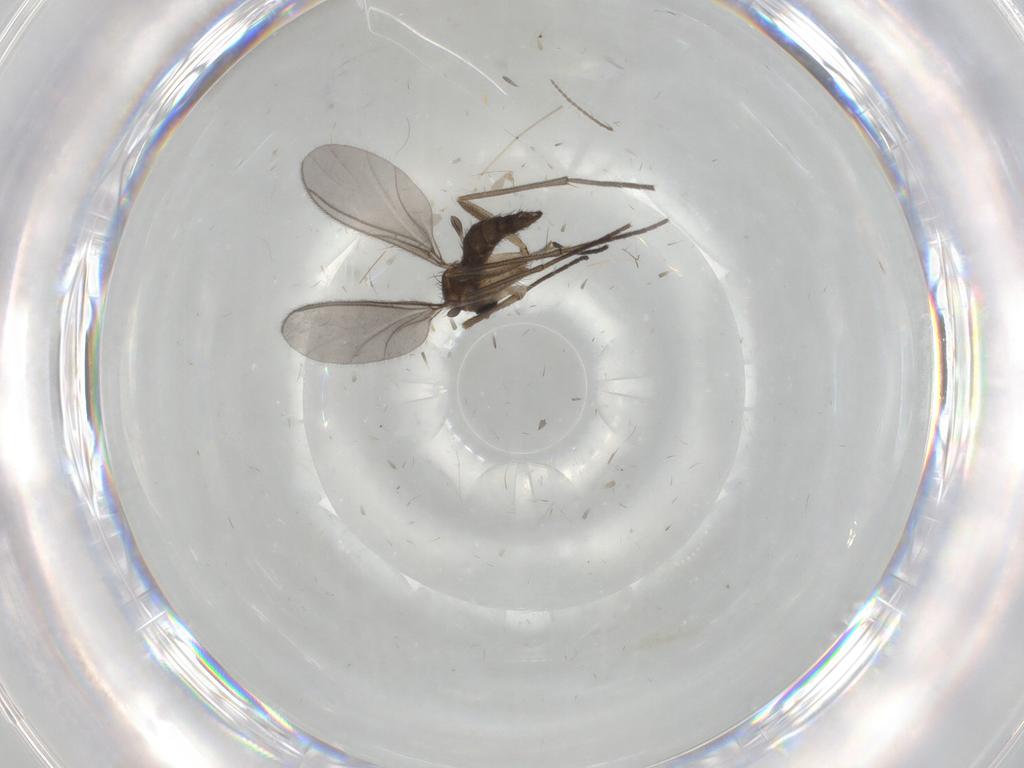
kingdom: Animalia
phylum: Arthropoda
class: Insecta
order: Diptera
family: Sciaridae
